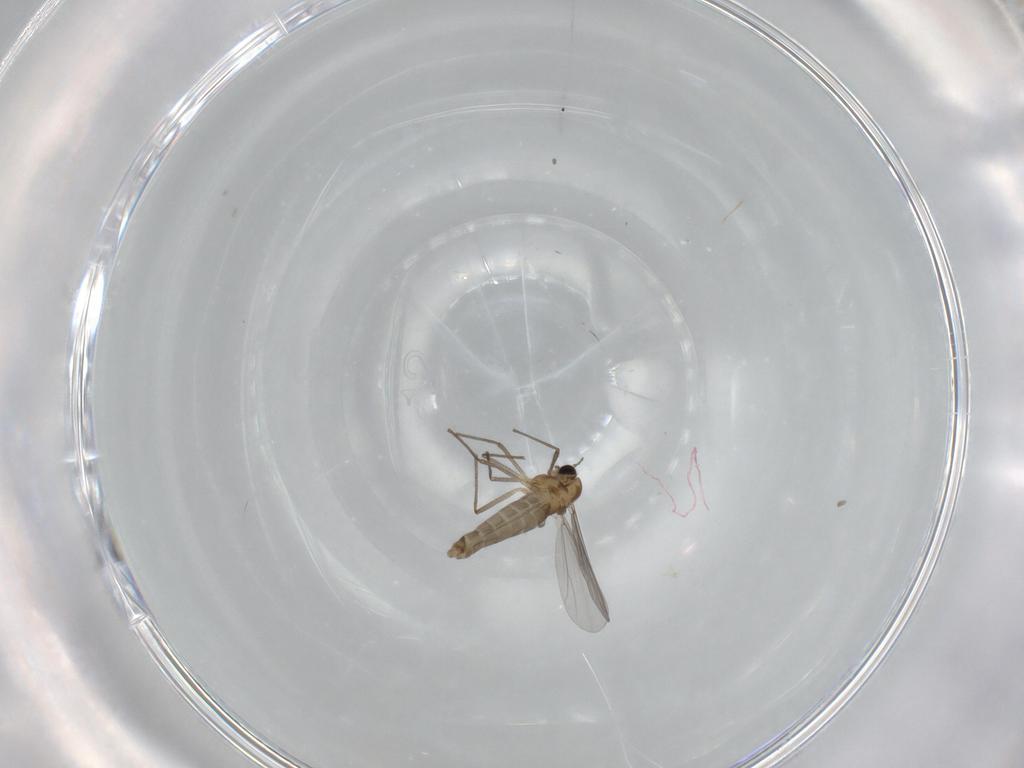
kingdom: Animalia
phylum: Arthropoda
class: Insecta
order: Diptera
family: Chironomidae
